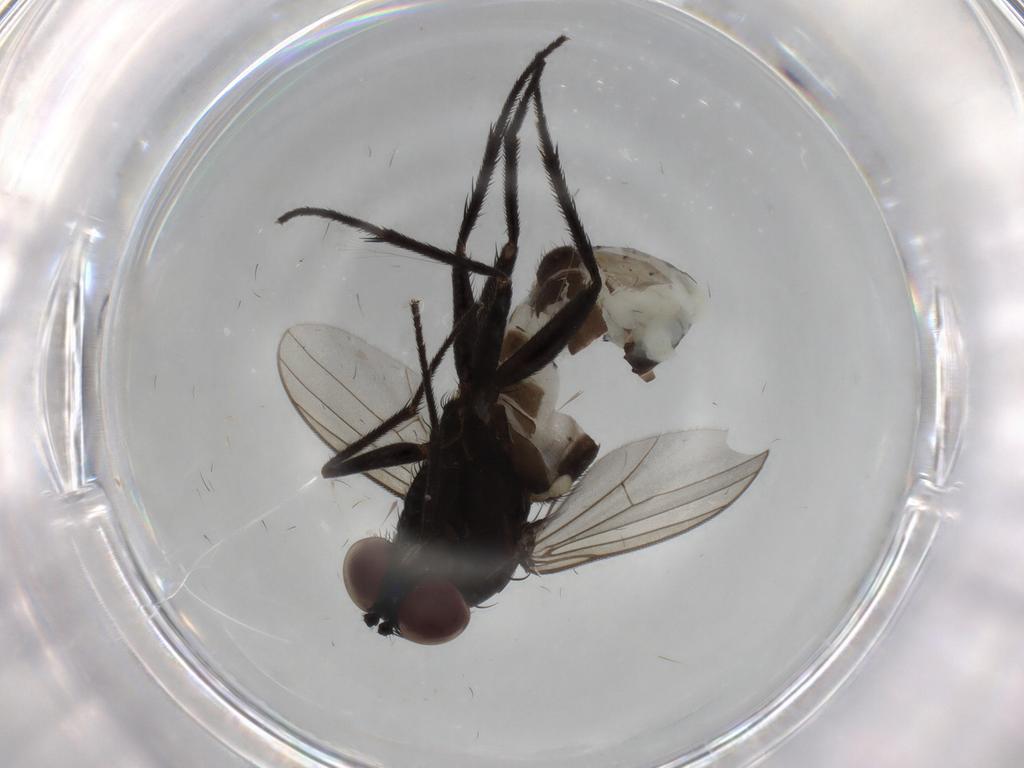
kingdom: Animalia
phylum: Arthropoda
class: Insecta
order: Diptera
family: Dolichopodidae
